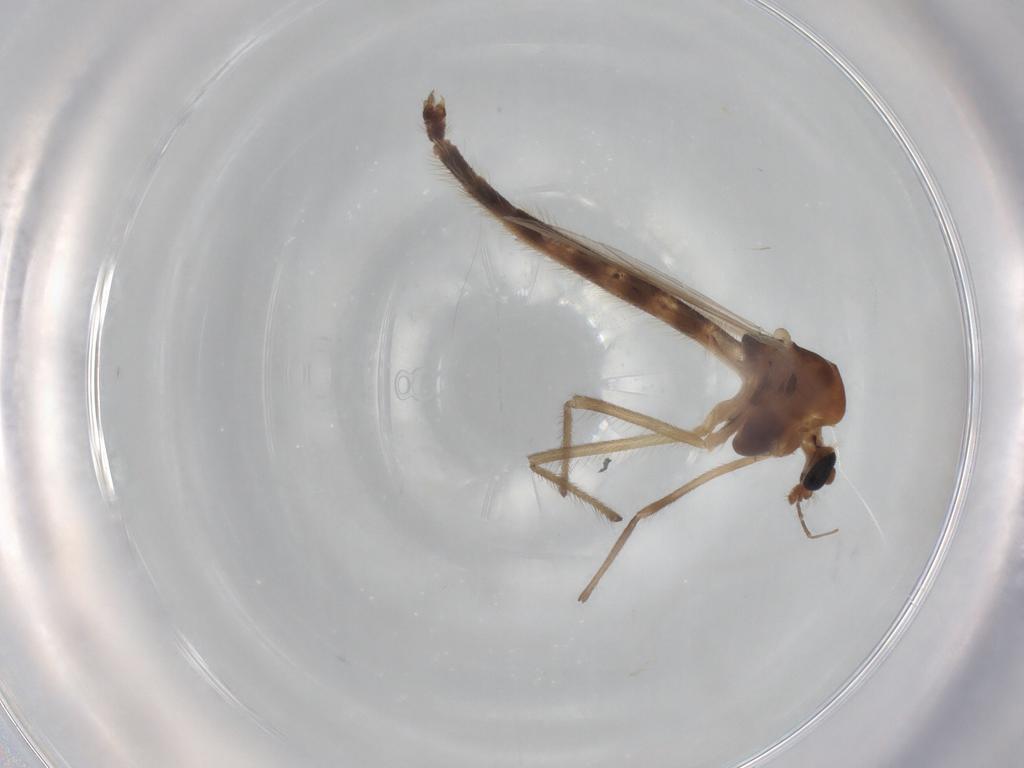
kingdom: Animalia
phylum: Arthropoda
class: Insecta
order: Diptera
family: Chironomidae
